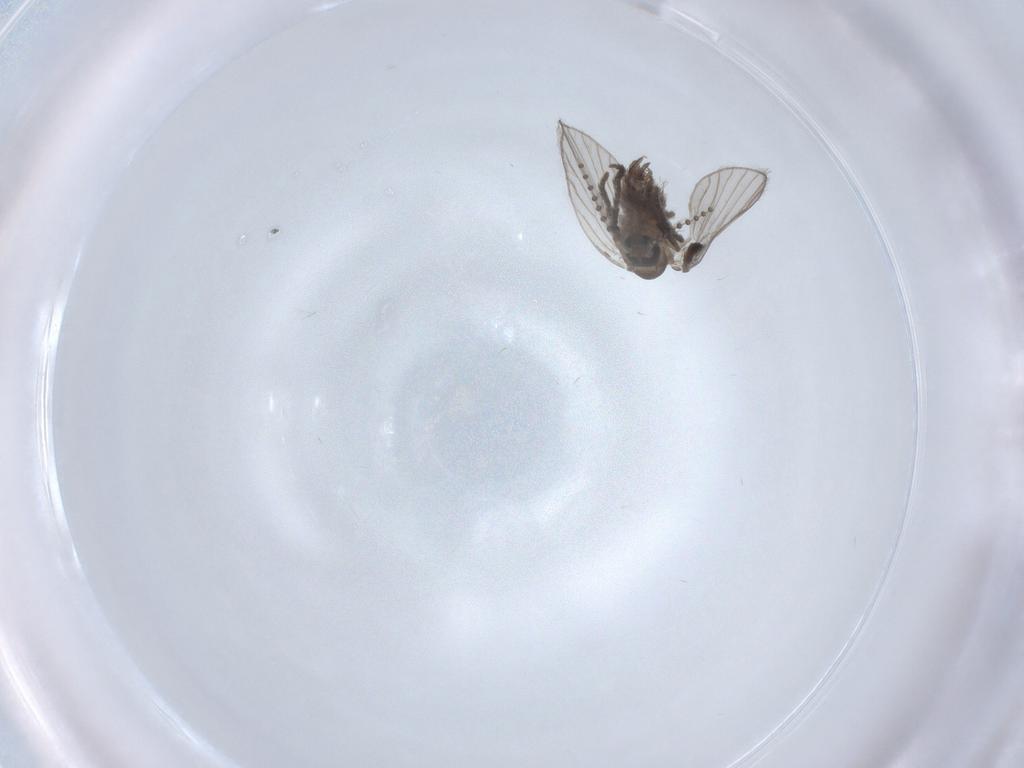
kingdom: Animalia
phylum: Arthropoda
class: Insecta
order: Diptera
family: Psychodidae
